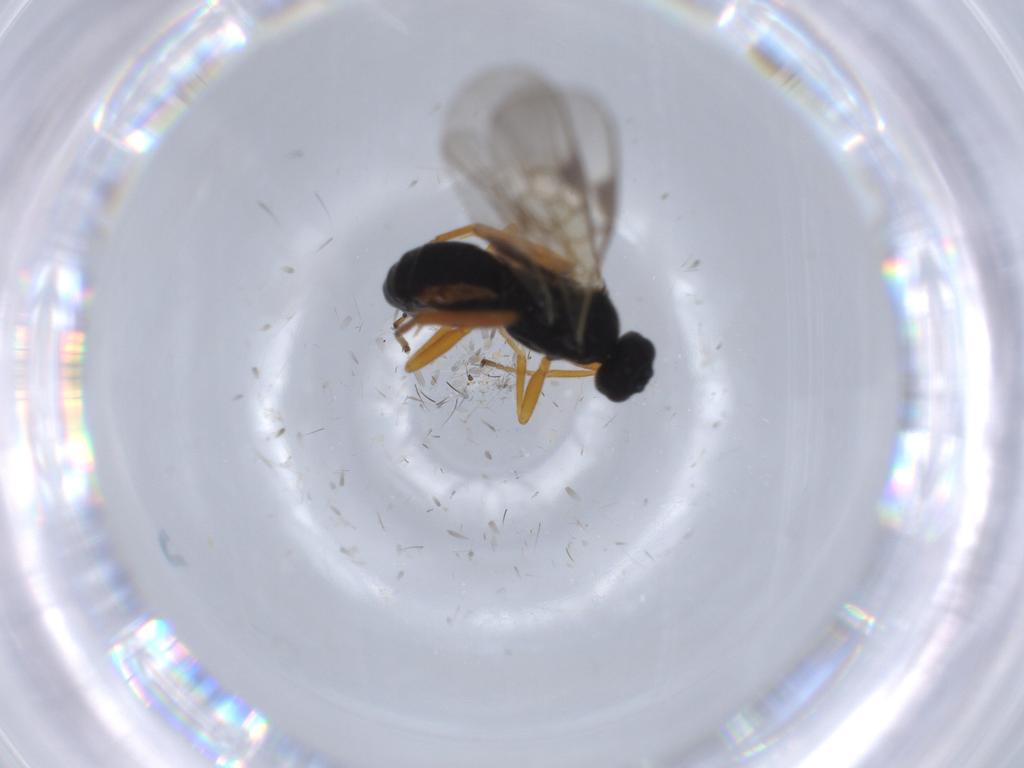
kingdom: Animalia
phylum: Arthropoda
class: Insecta
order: Hymenoptera
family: Braconidae
